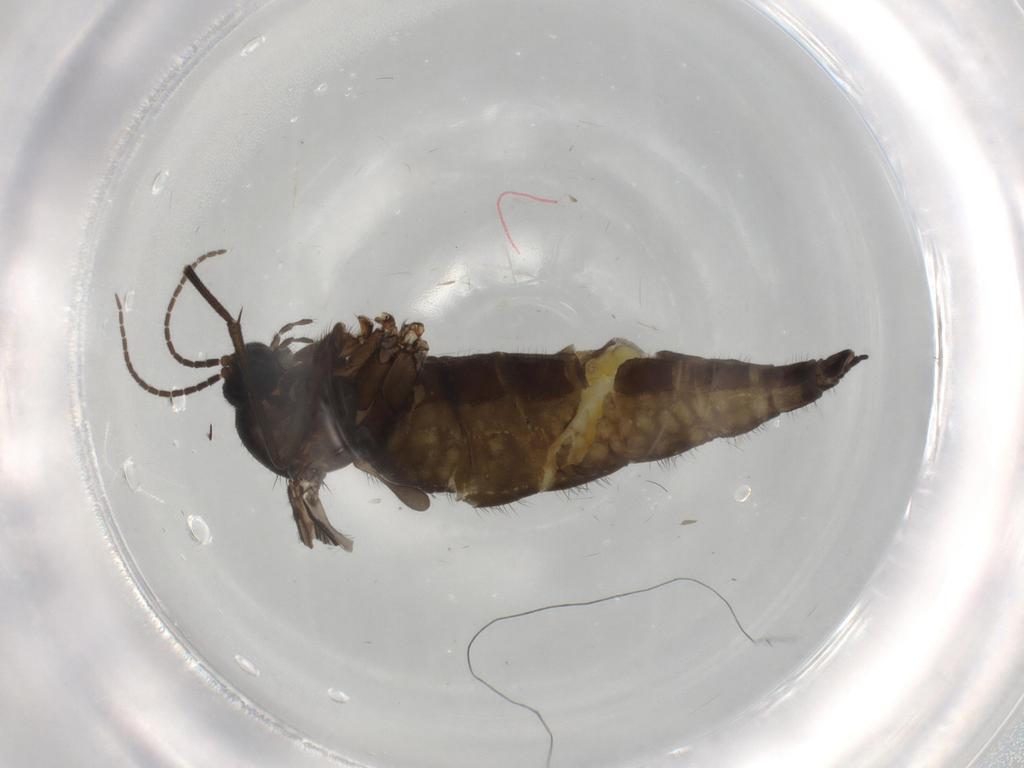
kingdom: Animalia
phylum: Arthropoda
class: Insecta
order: Diptera
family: Sciaridae
